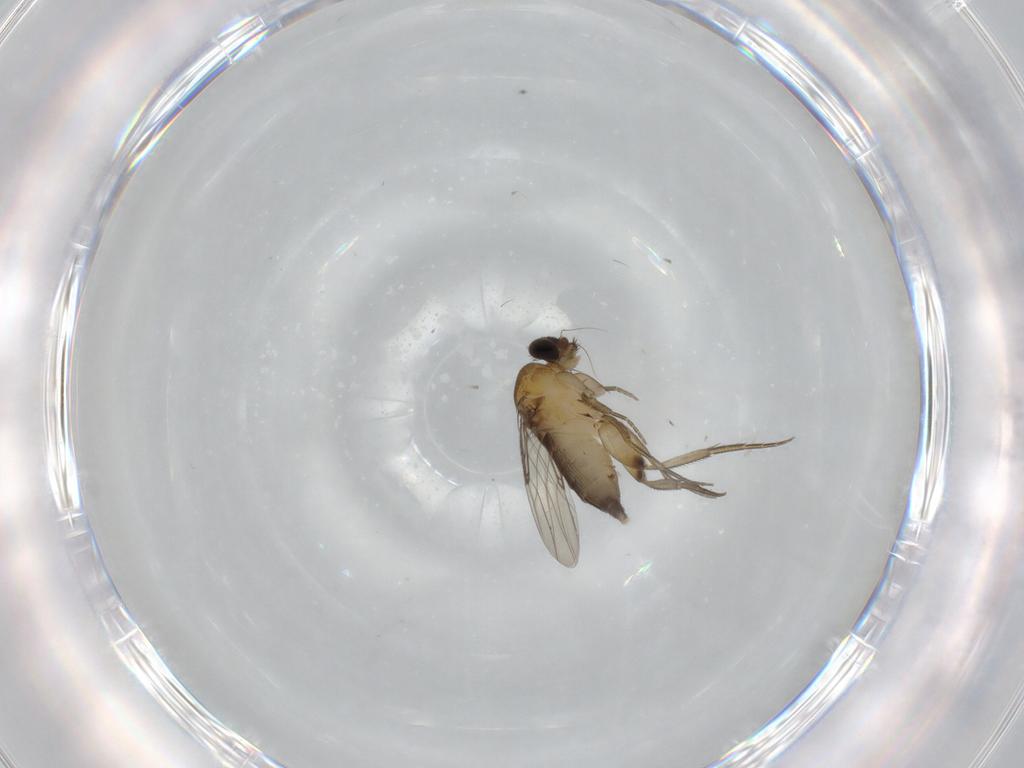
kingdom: Animalia
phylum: Arthropoda
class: Insecta
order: Diptera
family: Phoridae
